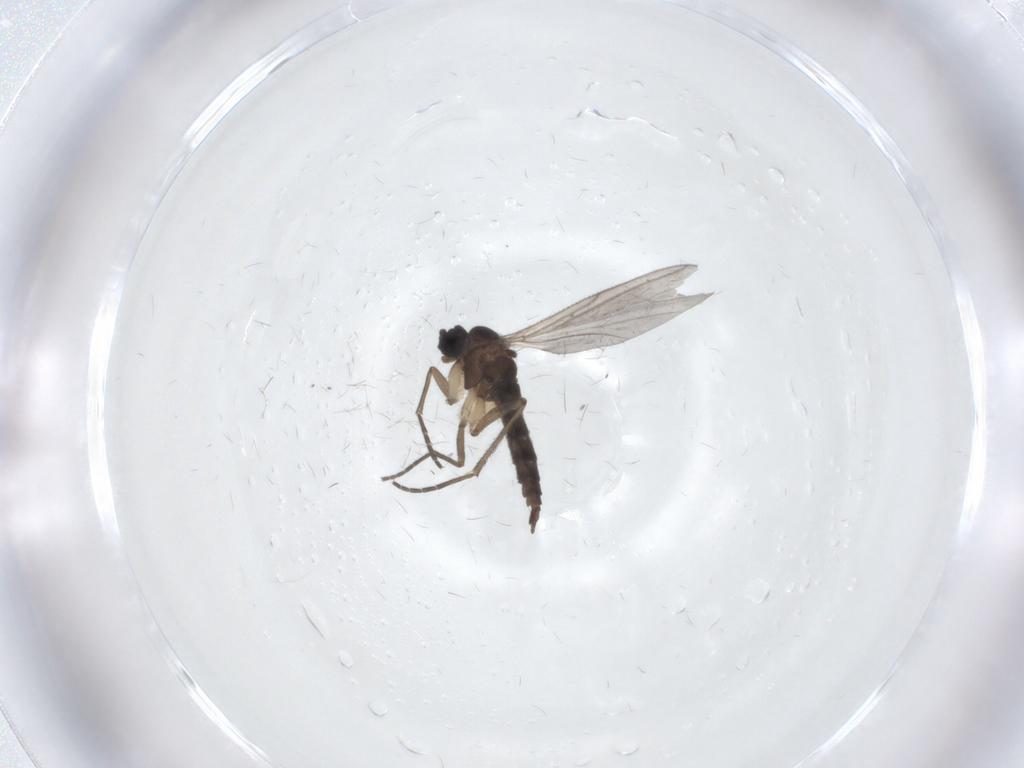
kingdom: Animalia
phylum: Arthropoda
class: Insecta
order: Diptera
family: Sciaridae
